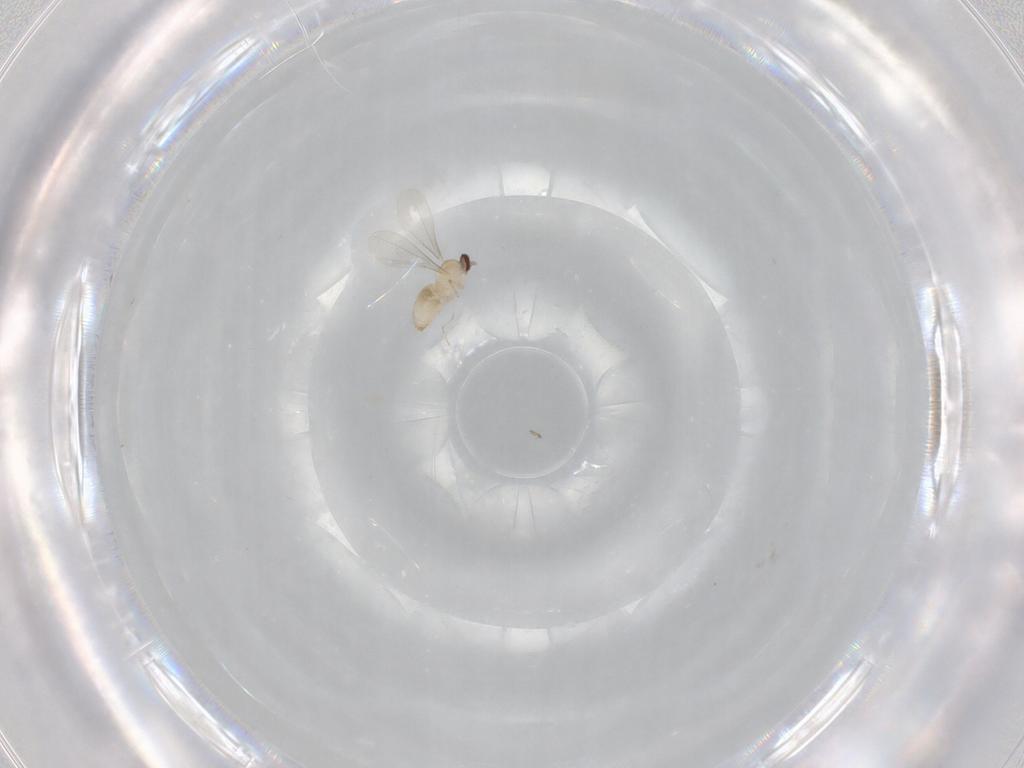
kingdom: Animalia
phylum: Arthropoda
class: Insecta
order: Diptera
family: Cecidomyiidae
